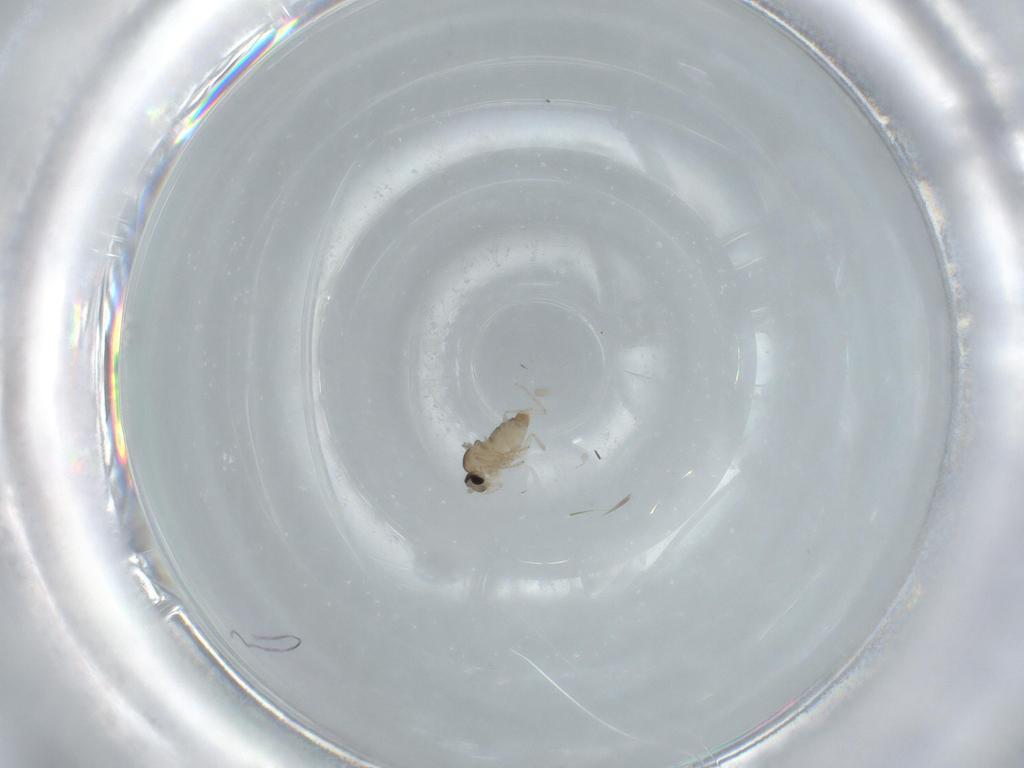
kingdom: Animalia
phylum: Arthropoda
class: Insecta
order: Diptera
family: Cecidomyiidae
